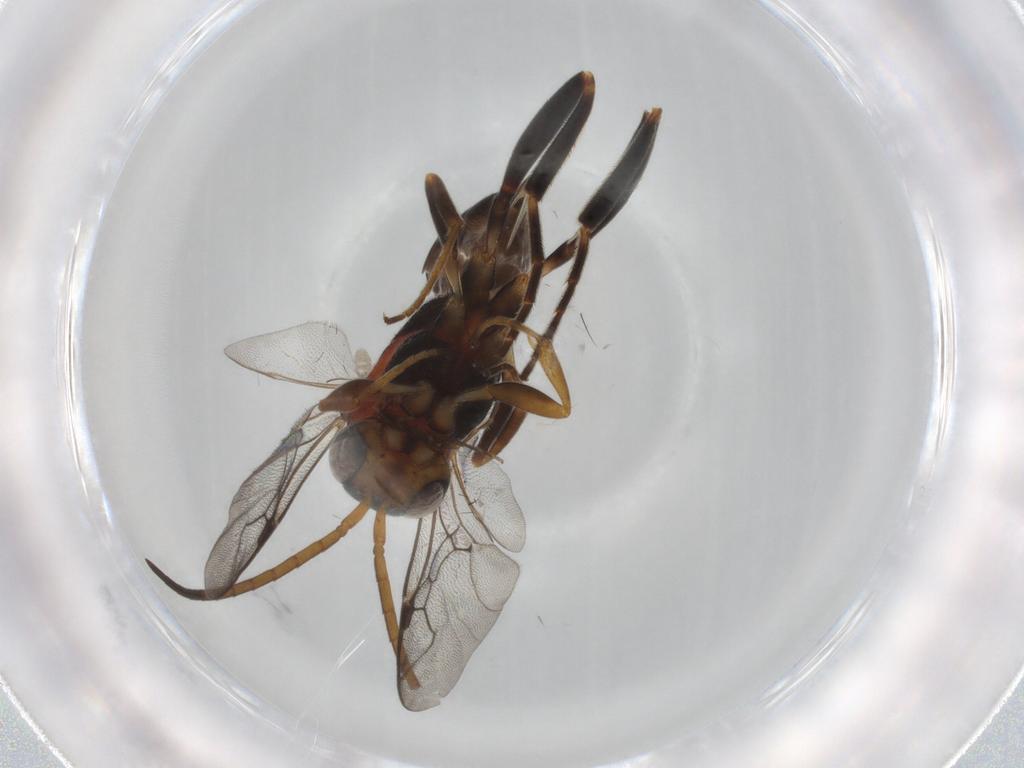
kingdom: Animalia
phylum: Arthropoda
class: Insecta
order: Hymenoptera
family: Evaniidae
